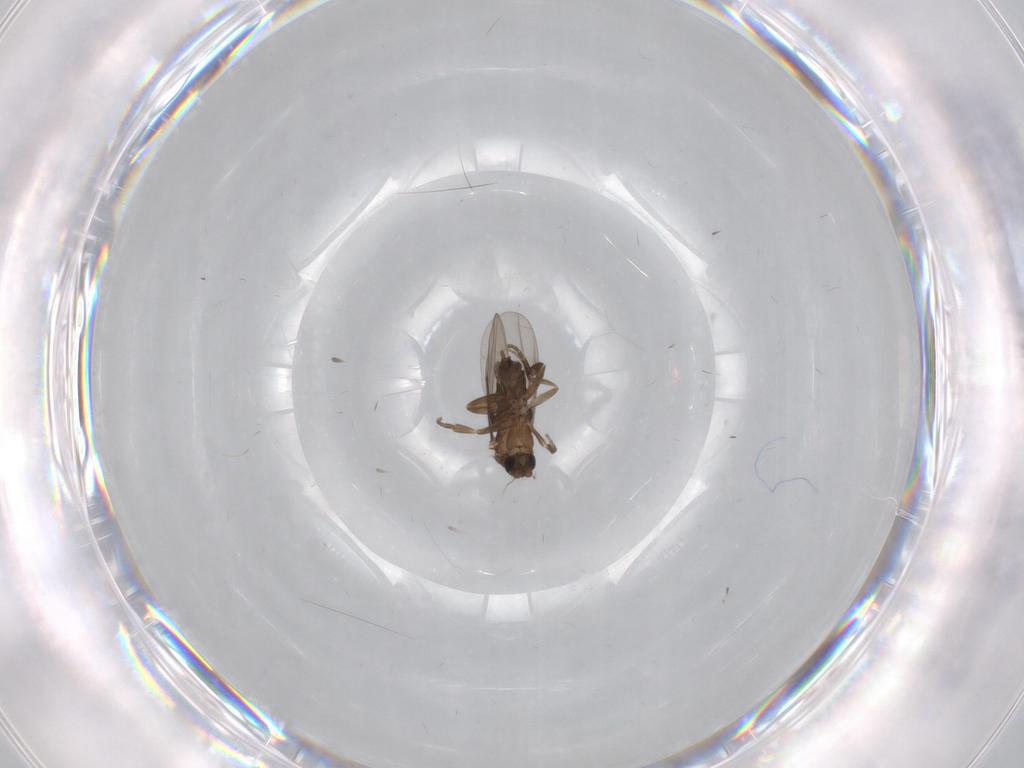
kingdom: Animalia
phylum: Arthropoda
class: Insecta
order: Diptera
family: Phoridae
